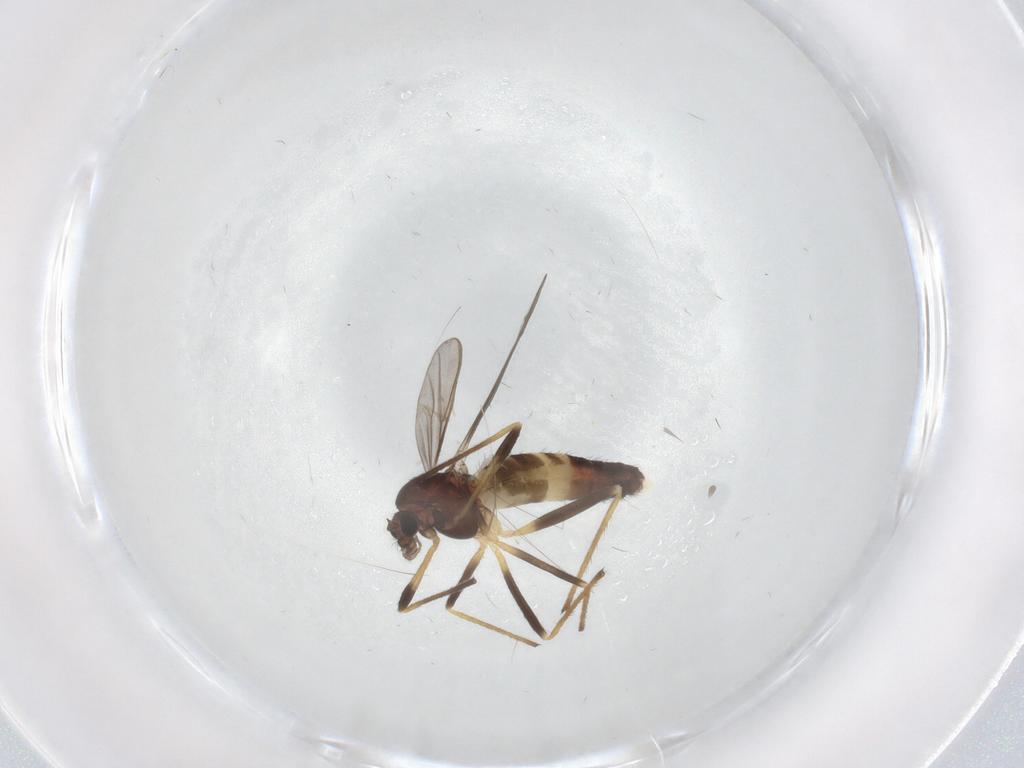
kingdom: Animalia
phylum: Arthropoda
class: Insecta
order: Diptera
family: Chironomidae
